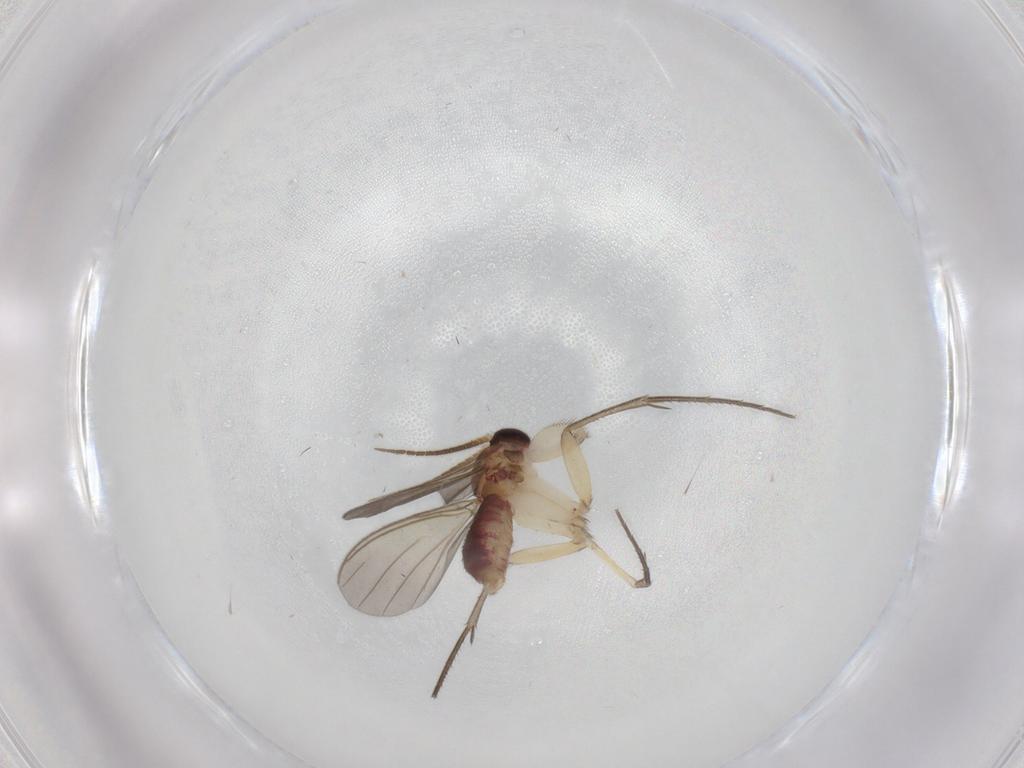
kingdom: Animalia
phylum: Arthropoda
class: Insecta
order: Diptera
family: Mycetophilidae
